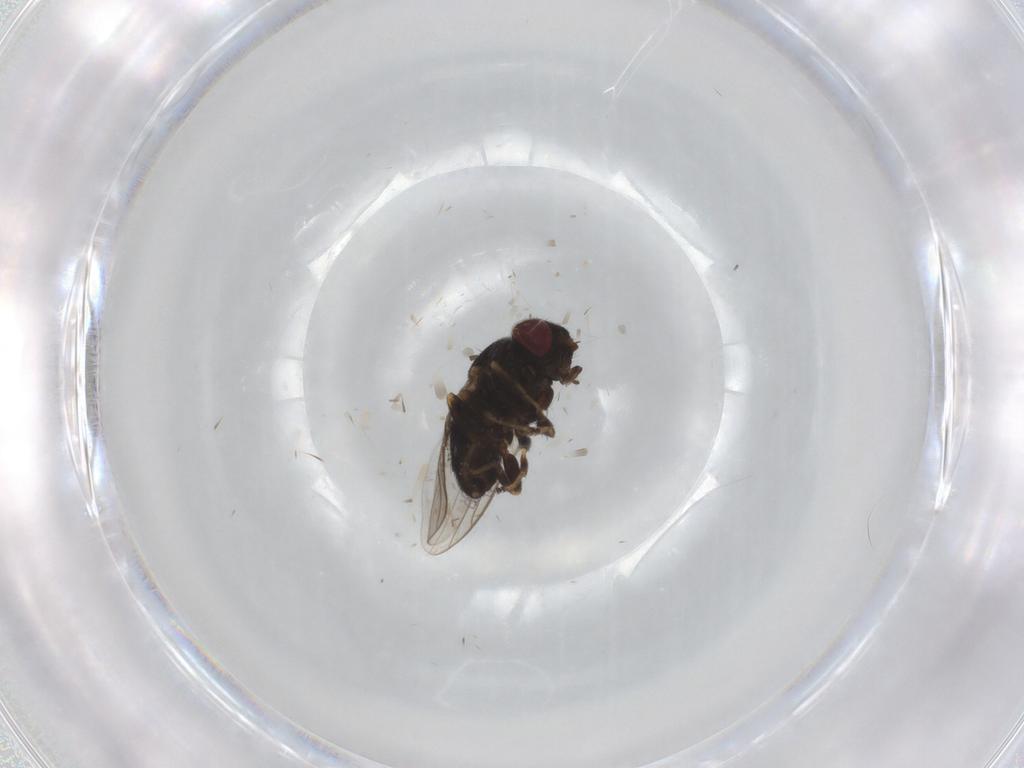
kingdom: Animalia
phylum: Arthropoda
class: Insecta
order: Diptera
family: Chloropidae
